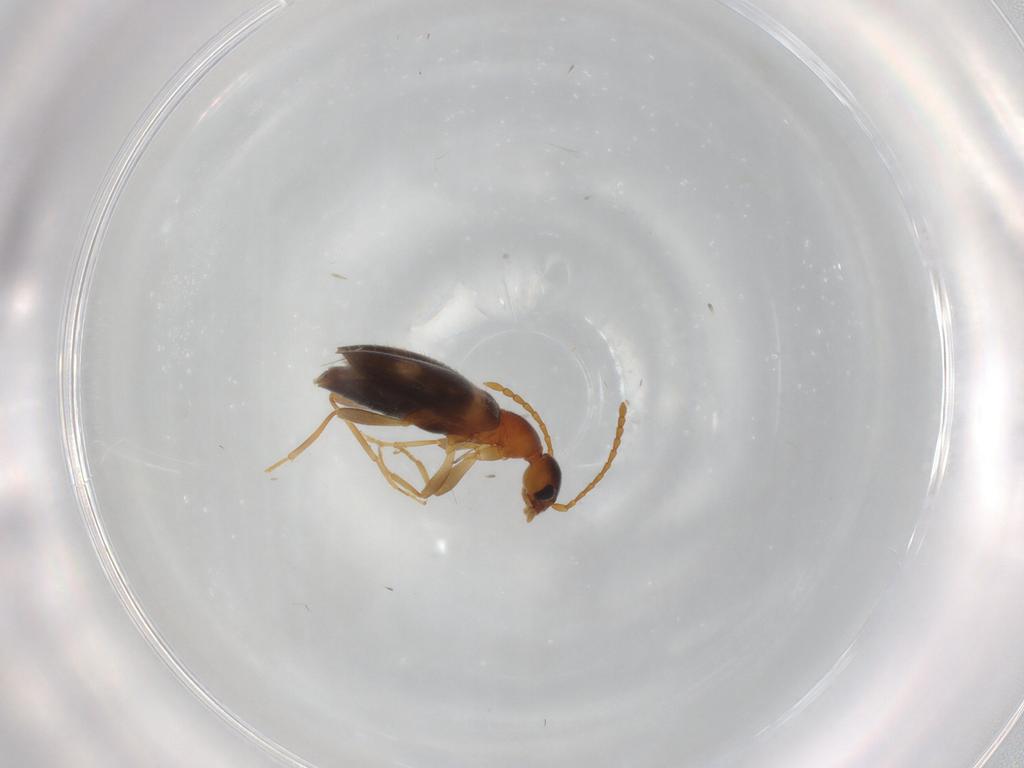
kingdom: Animalia
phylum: Arthropoda
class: Insecta
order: Coleoptera
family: Anthicidae
